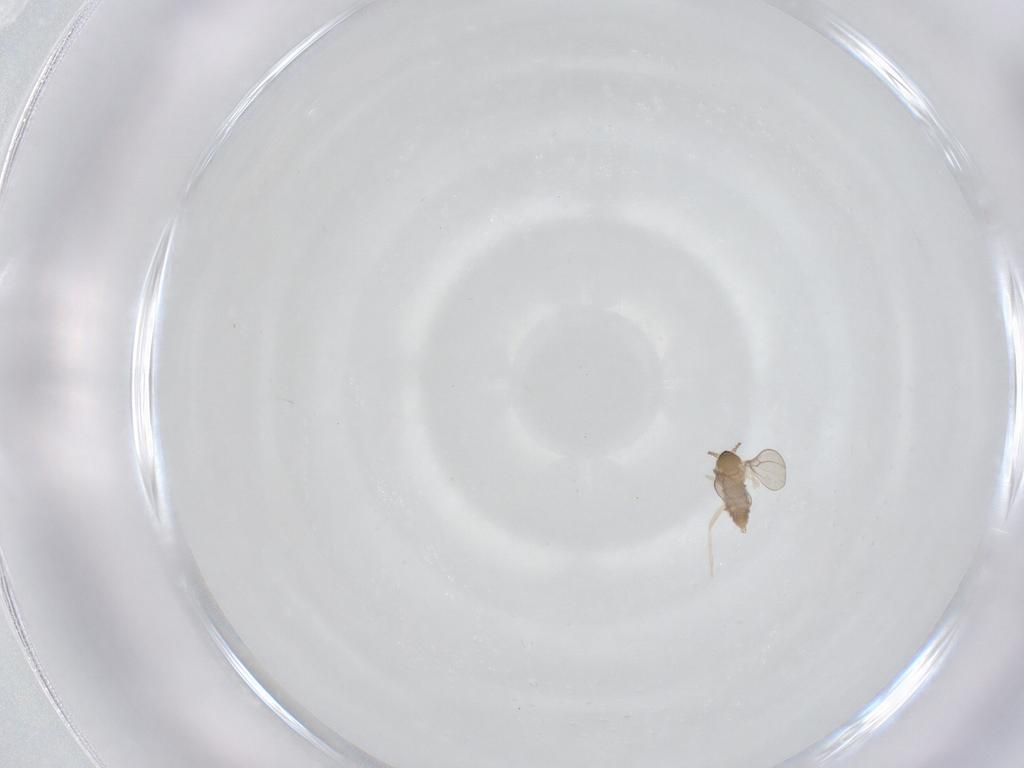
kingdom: Animalia
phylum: Arthropoda
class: Insecta
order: Diptera
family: Cecidomyiidae
